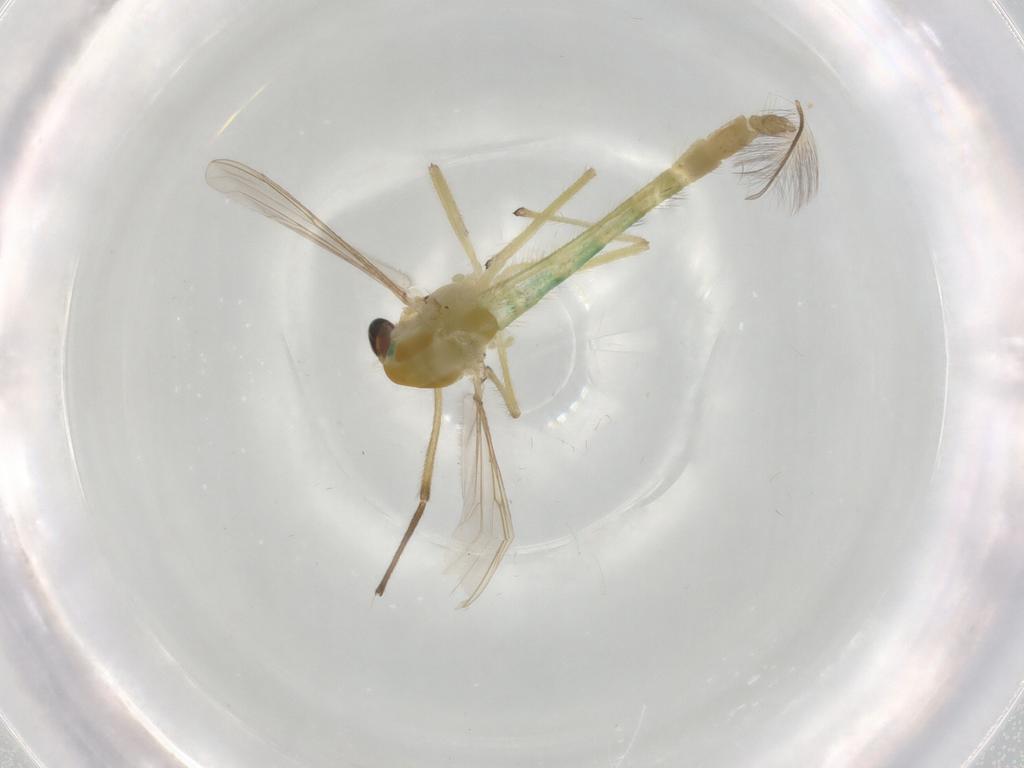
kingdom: Animalia
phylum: Arthropoda
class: Insecta
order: Diptera
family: Chironomidae
